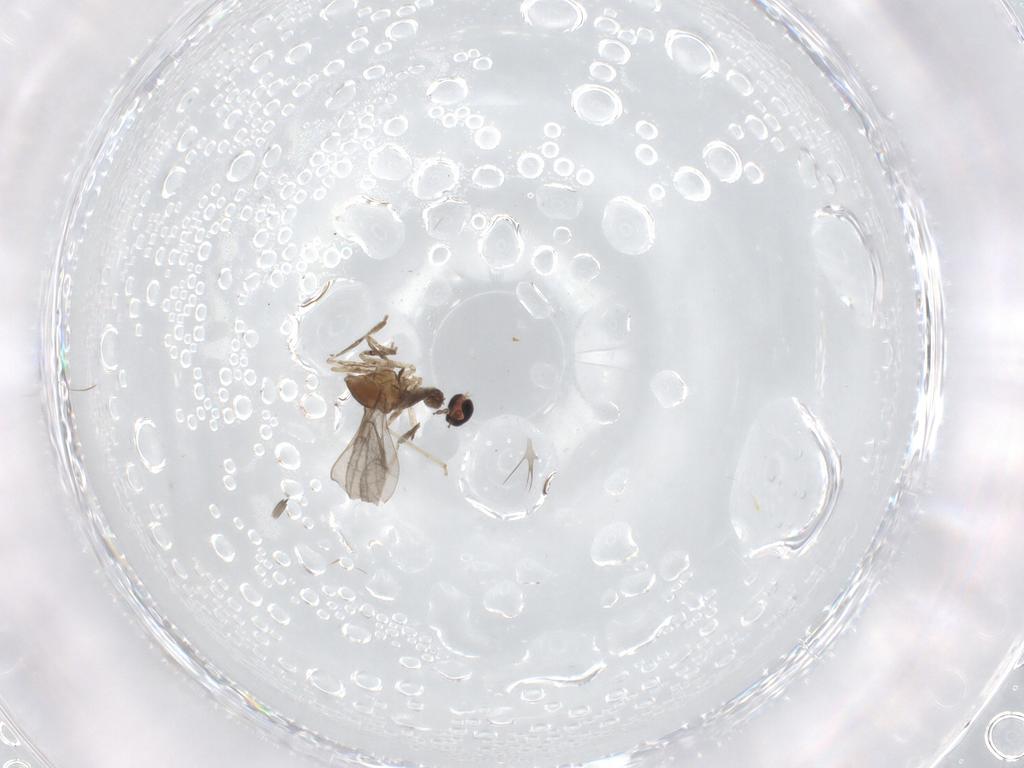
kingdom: Animalia
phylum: Arthropoda
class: Insecta
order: Diptera
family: Cecidomyiidae
